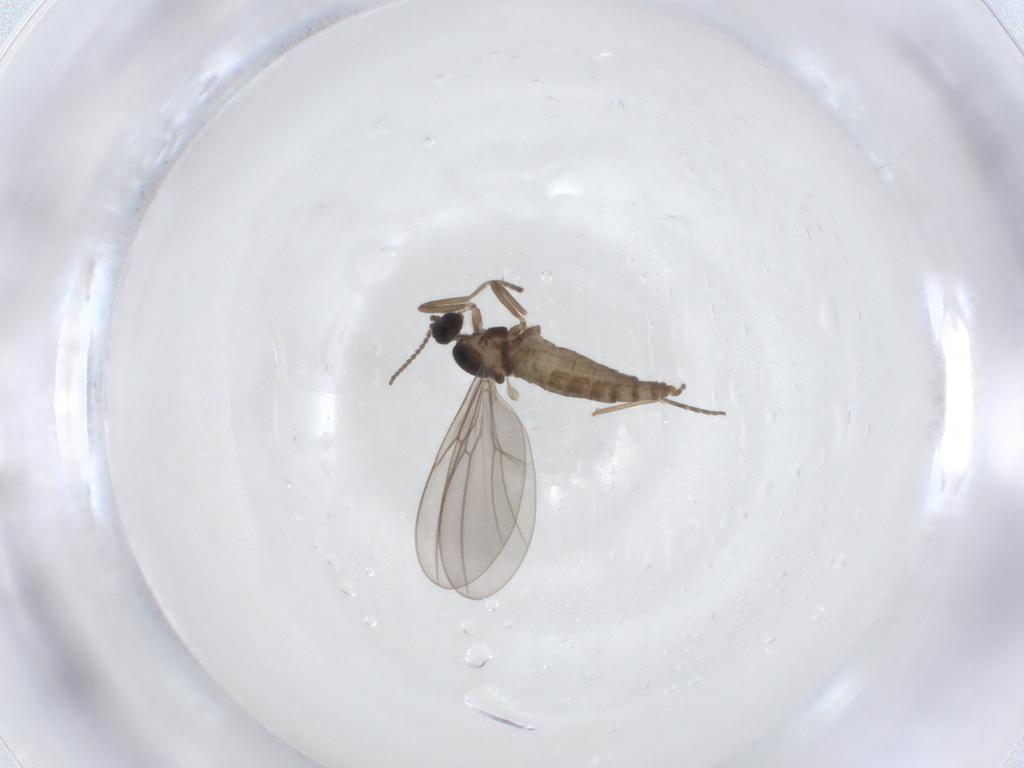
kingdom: Animalia
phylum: Arthropoda
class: Insecta
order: Diptera
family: Cecidomyiidae
